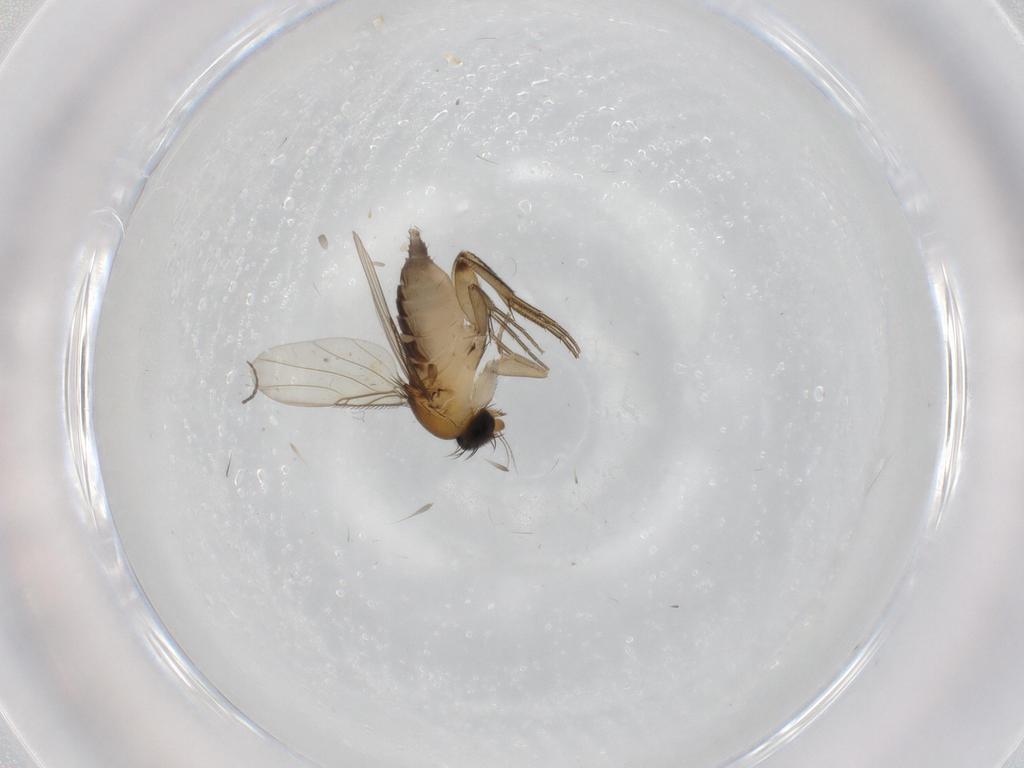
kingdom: Animalia
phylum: Arthropoda
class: Insecta
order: Diptera
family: Phoridae
